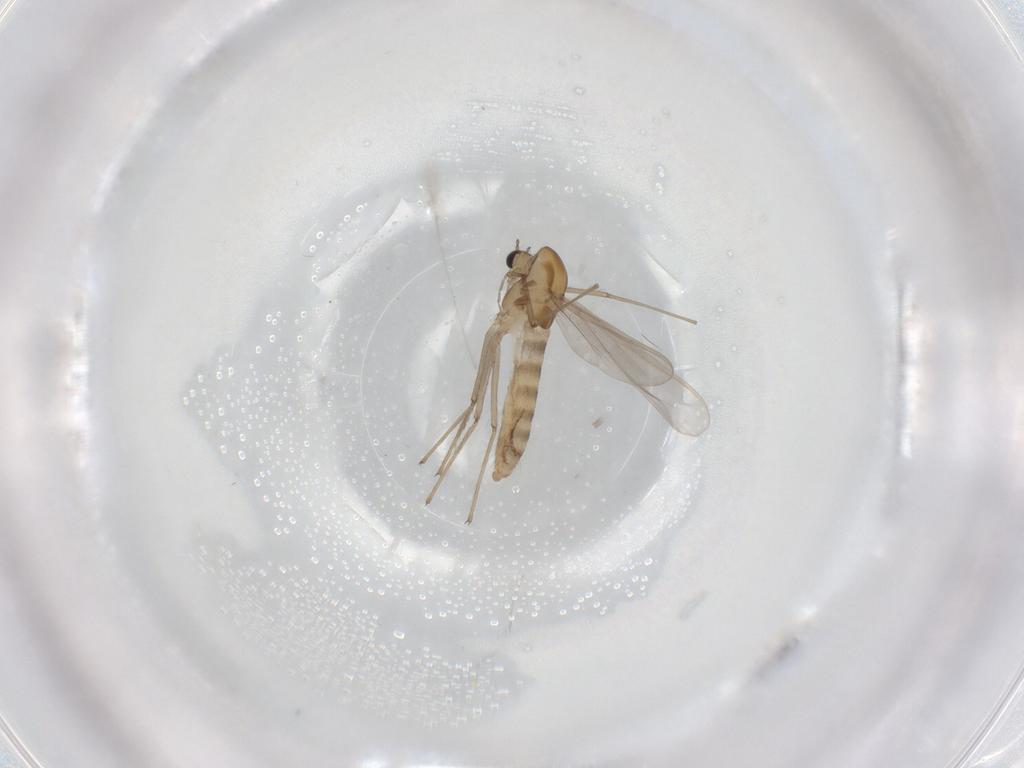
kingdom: Animalia
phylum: Arthropoda
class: Insecta
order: Diptera
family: Chironomidae
